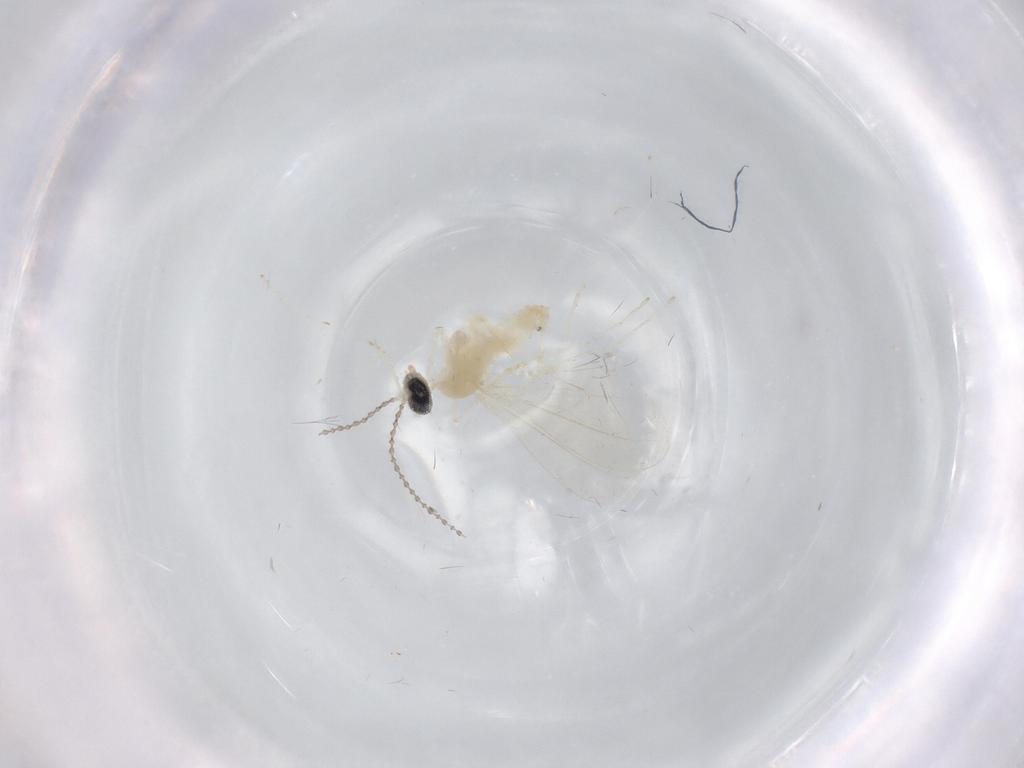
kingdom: Animalia
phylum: Arthropoda
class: Insecta
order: Diptera
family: Cecidomyiidae
